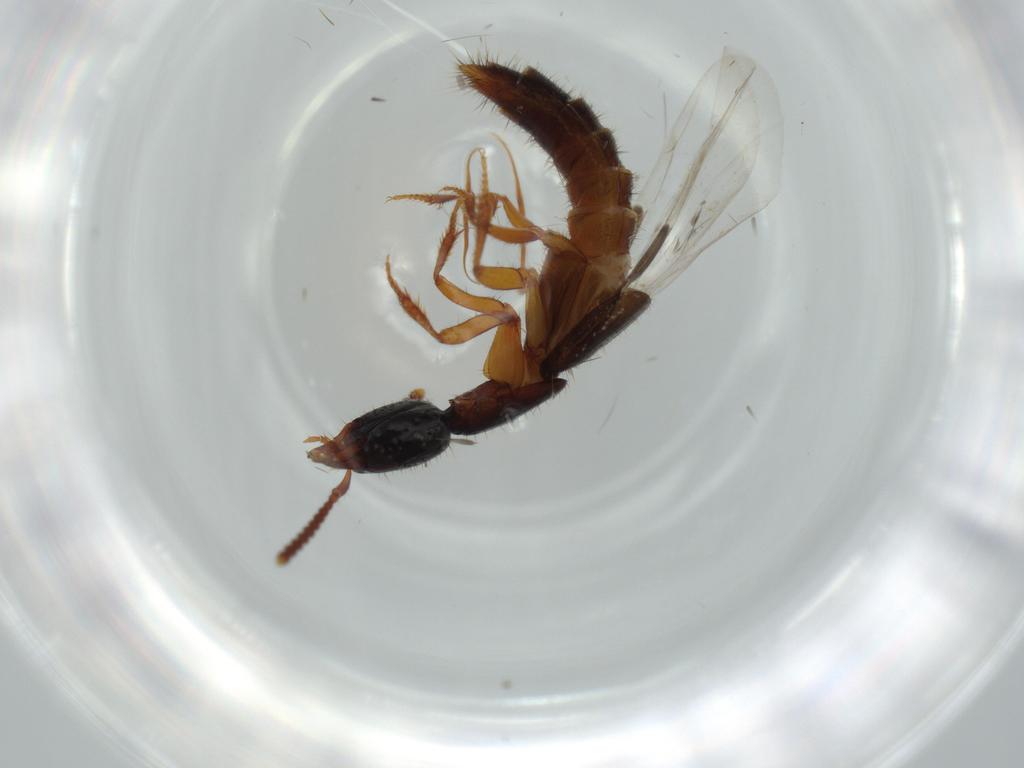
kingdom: Animalia
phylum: Arthropoda
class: Insecta
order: Coleoptera
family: Staphylinidae
